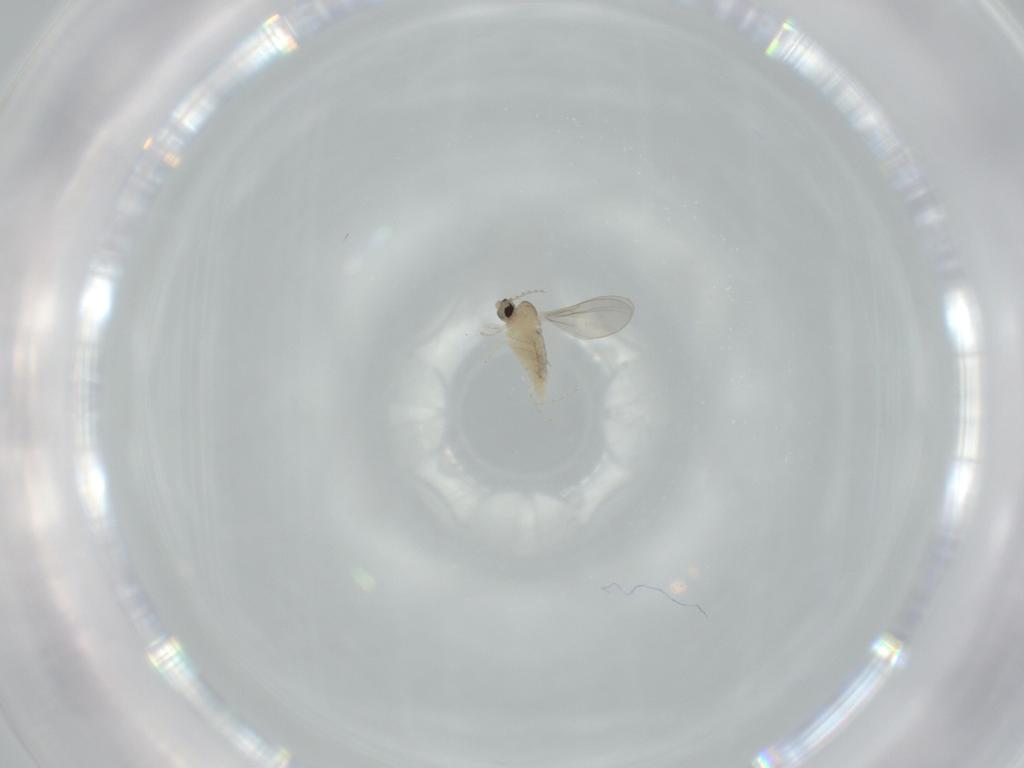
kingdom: Animalia
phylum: Arthropoda
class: Insecta
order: Diptera
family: Cecidomyiidae
